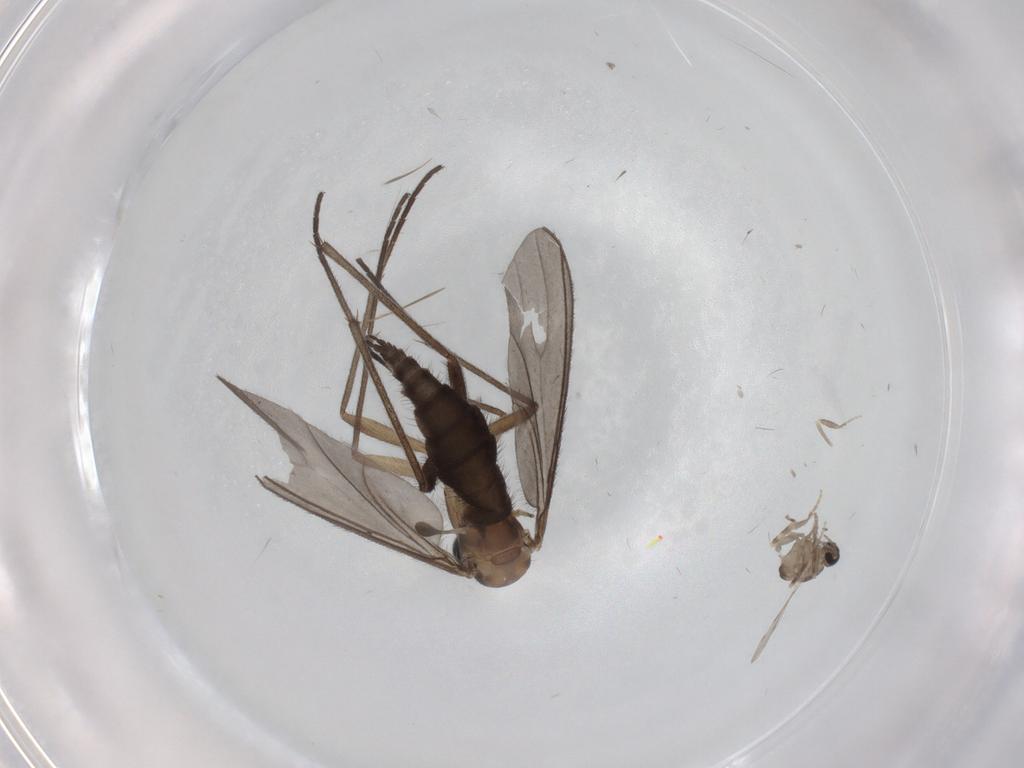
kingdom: Animalia
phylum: Arthropoda
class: Insecta
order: Diptera
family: Ceratopogonidae
